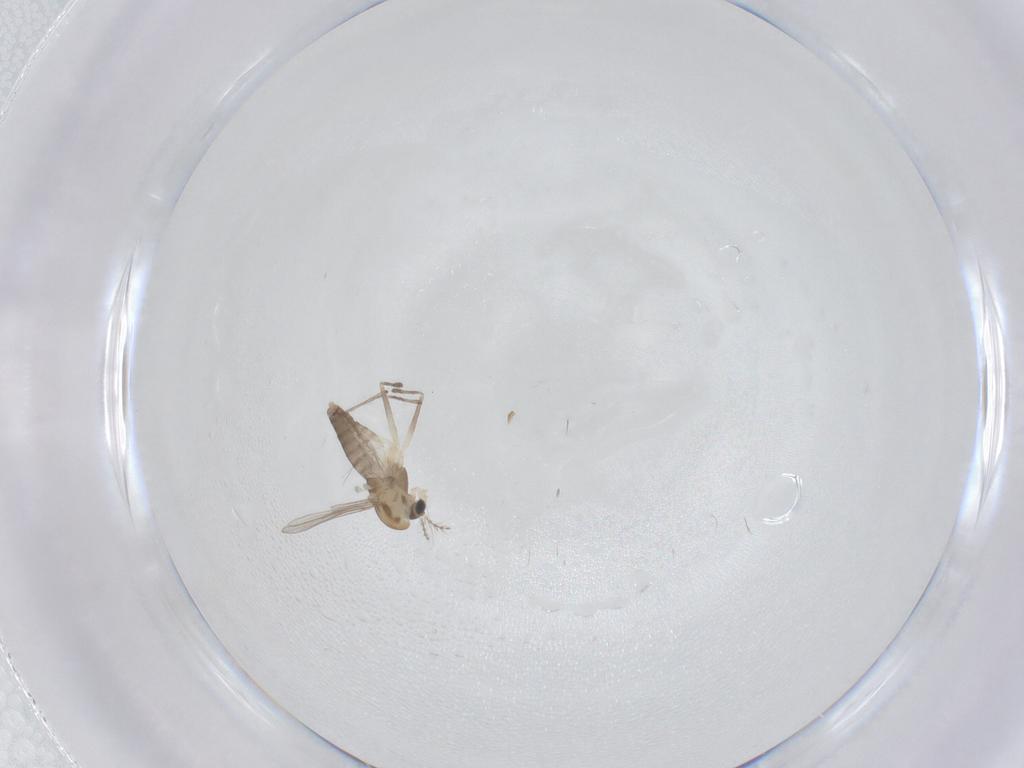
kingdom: Animalia
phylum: Arthropoda
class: Insecta
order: Diptera
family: Chironomidae
